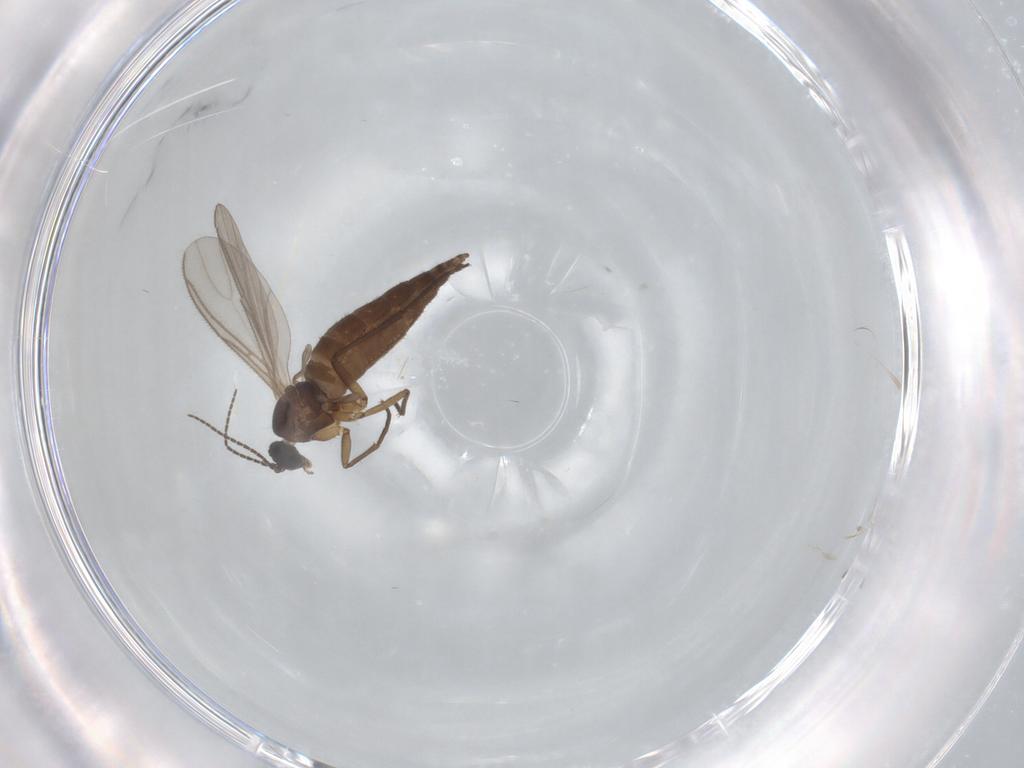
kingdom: Animalia
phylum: Arthropoda
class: Insecta
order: Diptera
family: Sciaridae
